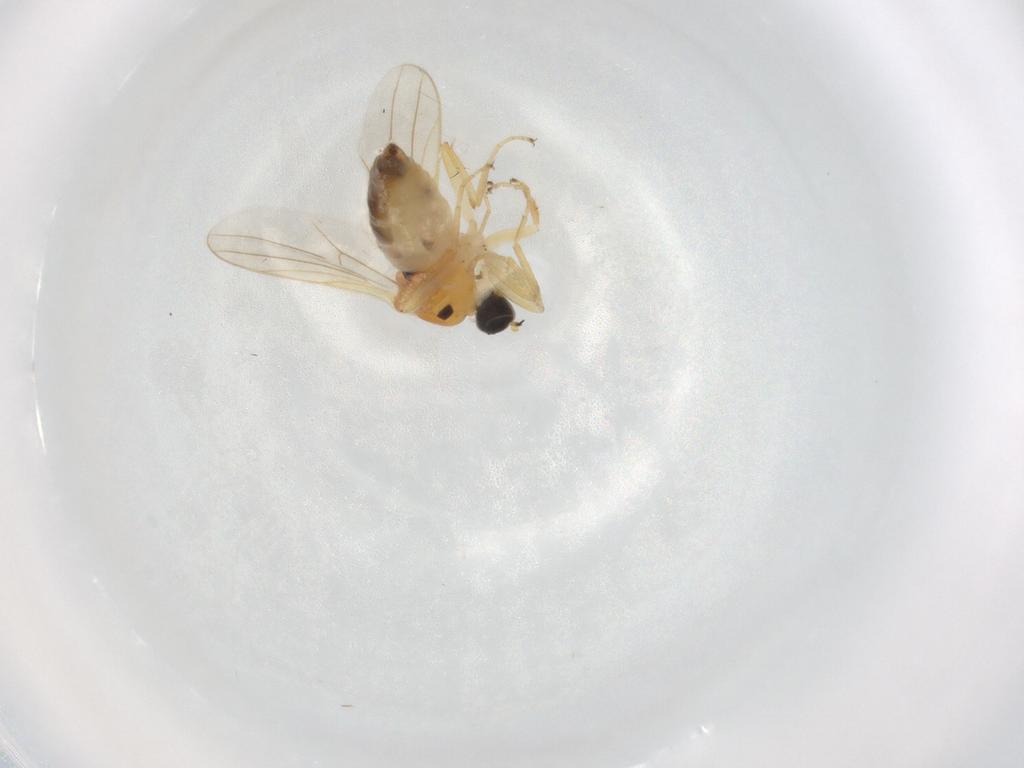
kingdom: Animalia
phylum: Arthropoda
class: Insecta
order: Diptera
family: Hybotidae
